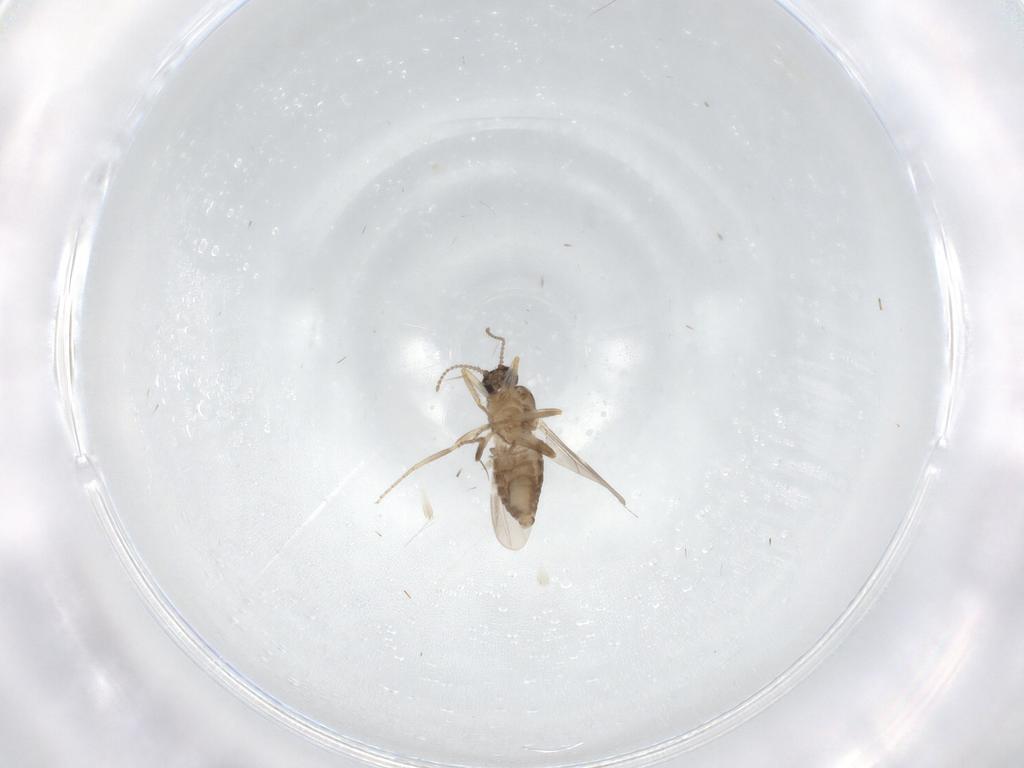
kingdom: Animalia
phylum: Arthropoda
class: Insecta
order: Diptera
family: Ceratopogonidae
